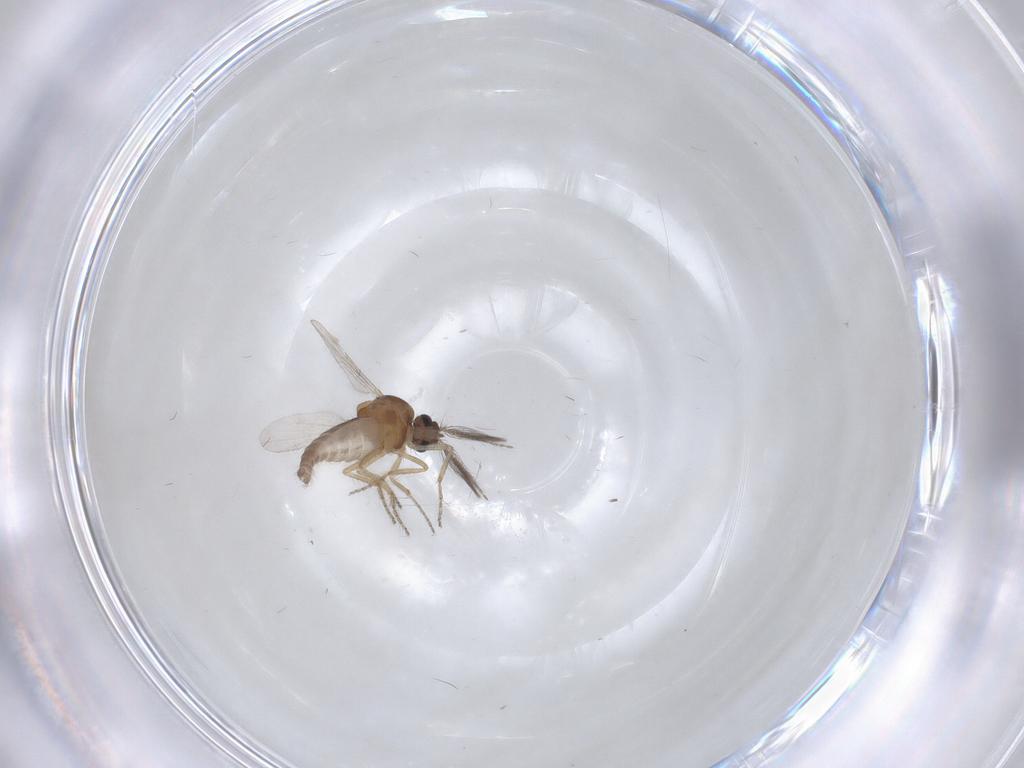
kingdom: Animalia
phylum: Arthropoda
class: Insecta
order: Diptera
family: Ceratopogonidae
